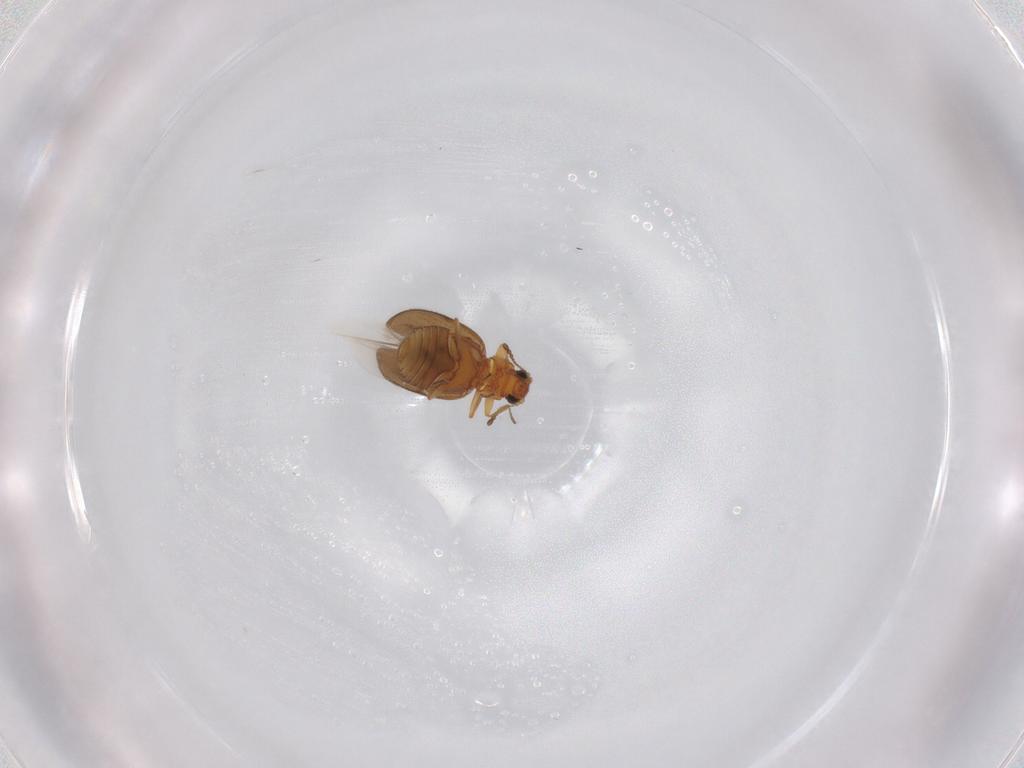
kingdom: Animalia
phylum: Arthropoda
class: Insecta
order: Coleoptera
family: Latridiidae
